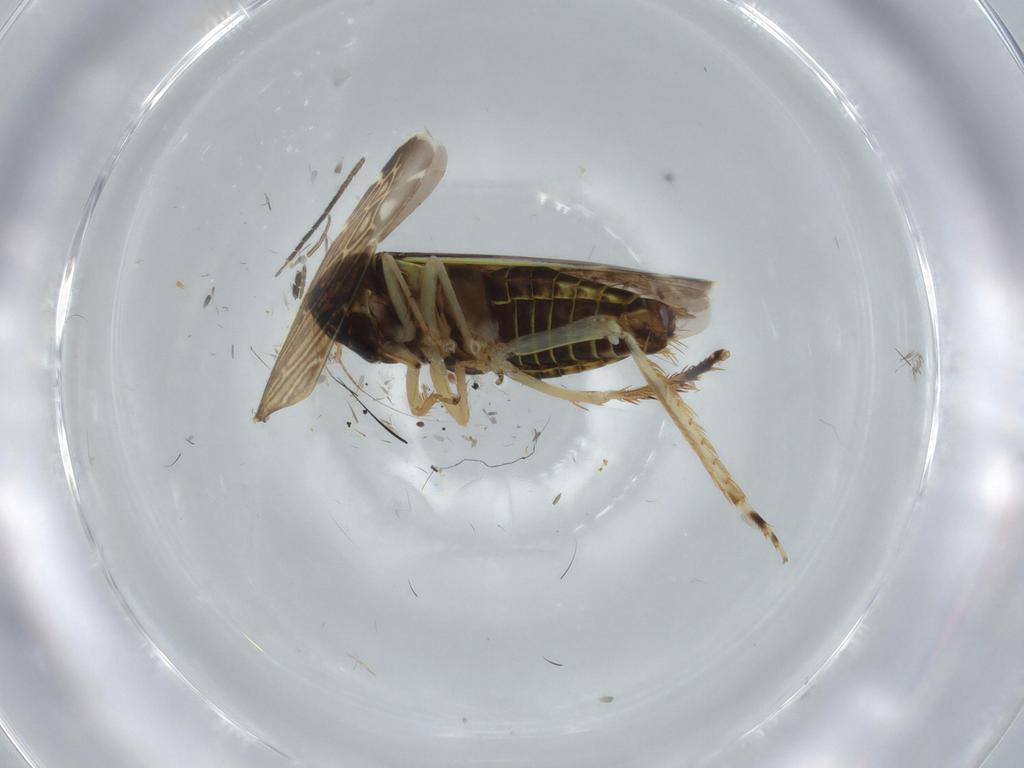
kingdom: Animalia
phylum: Arthropoda
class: Insecta
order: Hemiptera
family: Cicadellidae
